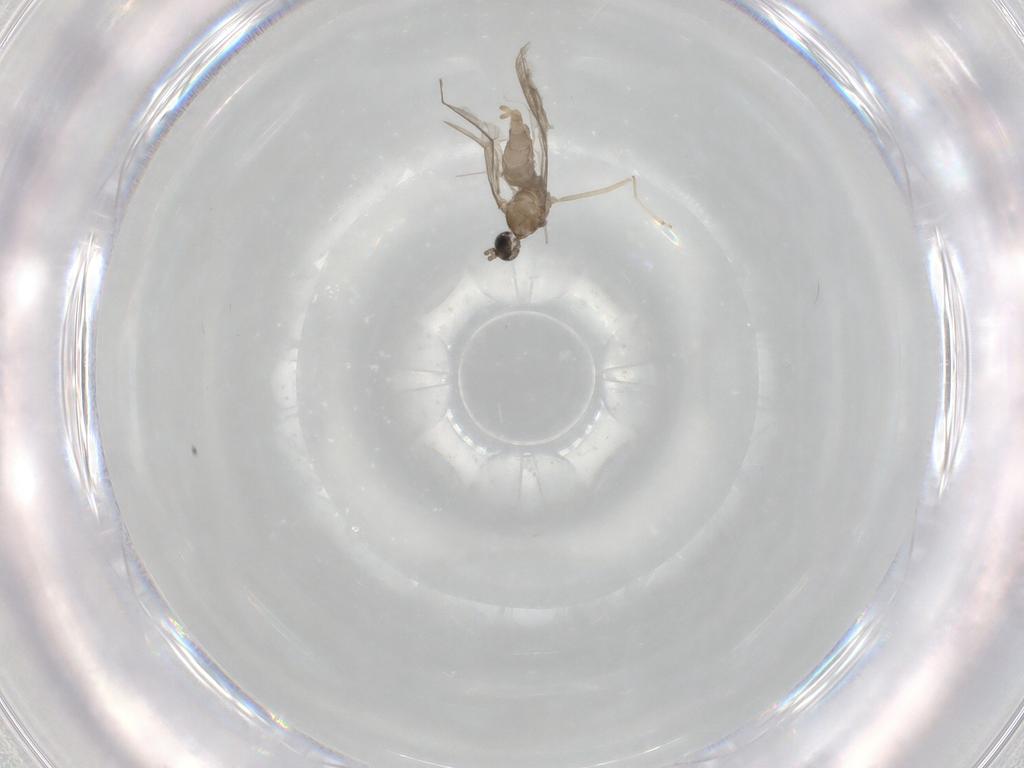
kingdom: Animalia
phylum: Arthropoda
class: Insecta
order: Diptera
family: Cecidomyiidae
